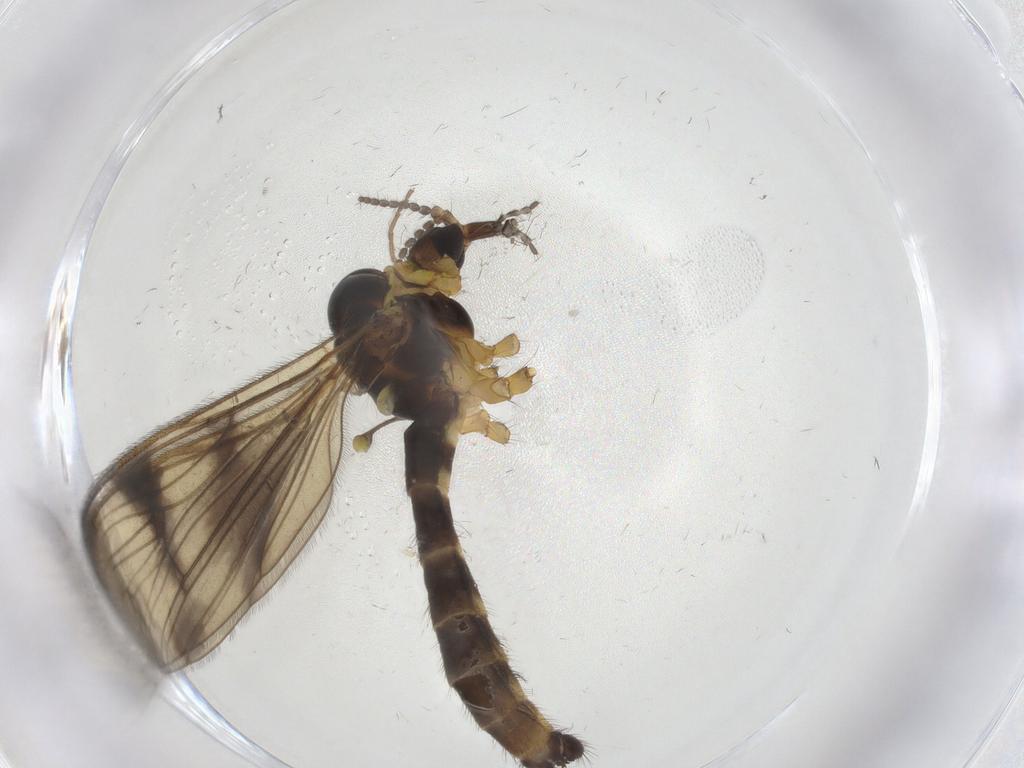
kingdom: Animalia
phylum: Arthropoda
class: Insecta
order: Diptera
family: Limoniidae
